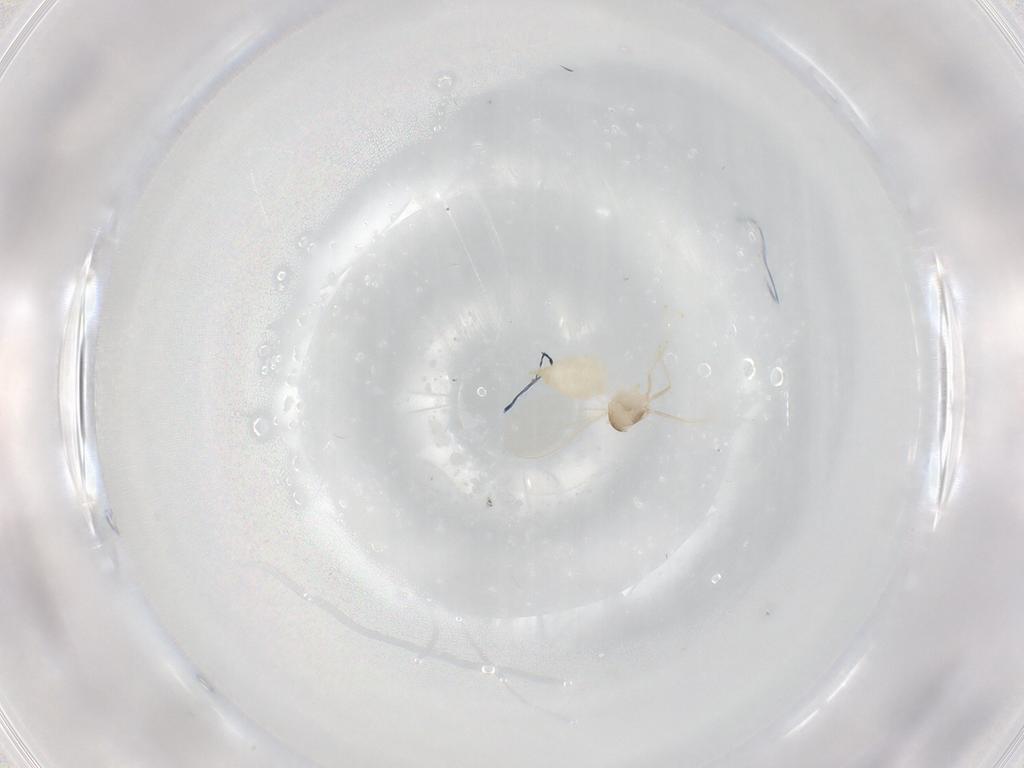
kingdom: Animalia
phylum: Arthropoda
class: Insecta
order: Diptera
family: Cecidomyiidae
